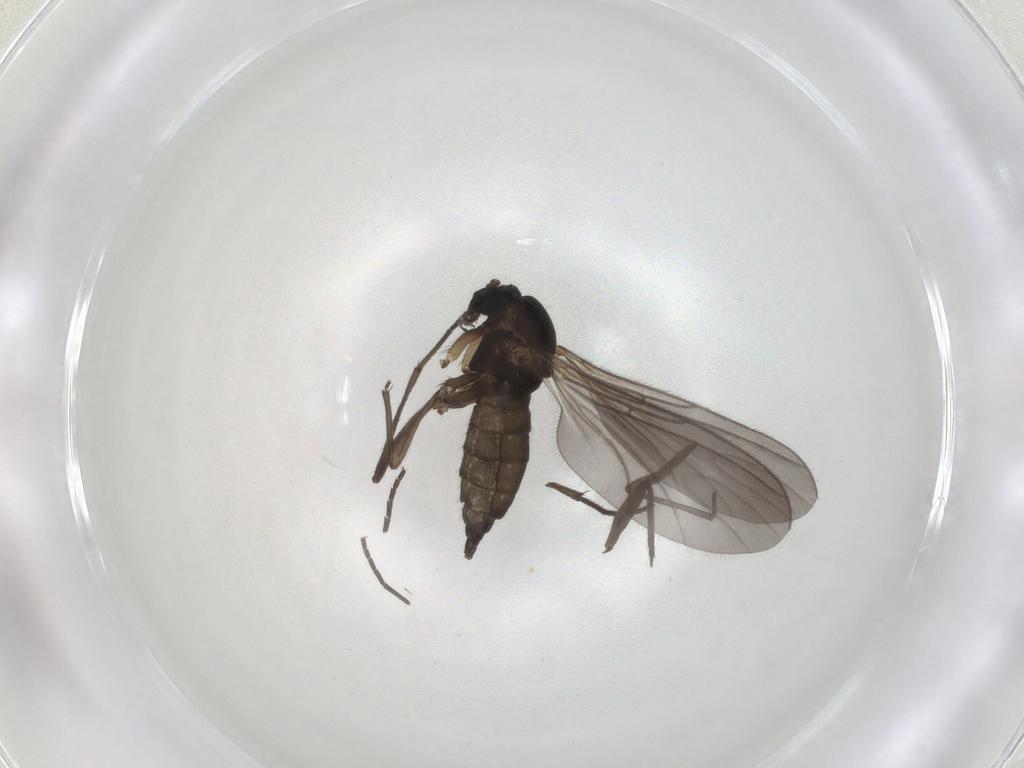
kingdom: Animalia
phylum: Arthropoda
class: Insecta
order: Diptera
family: Sciaridae
